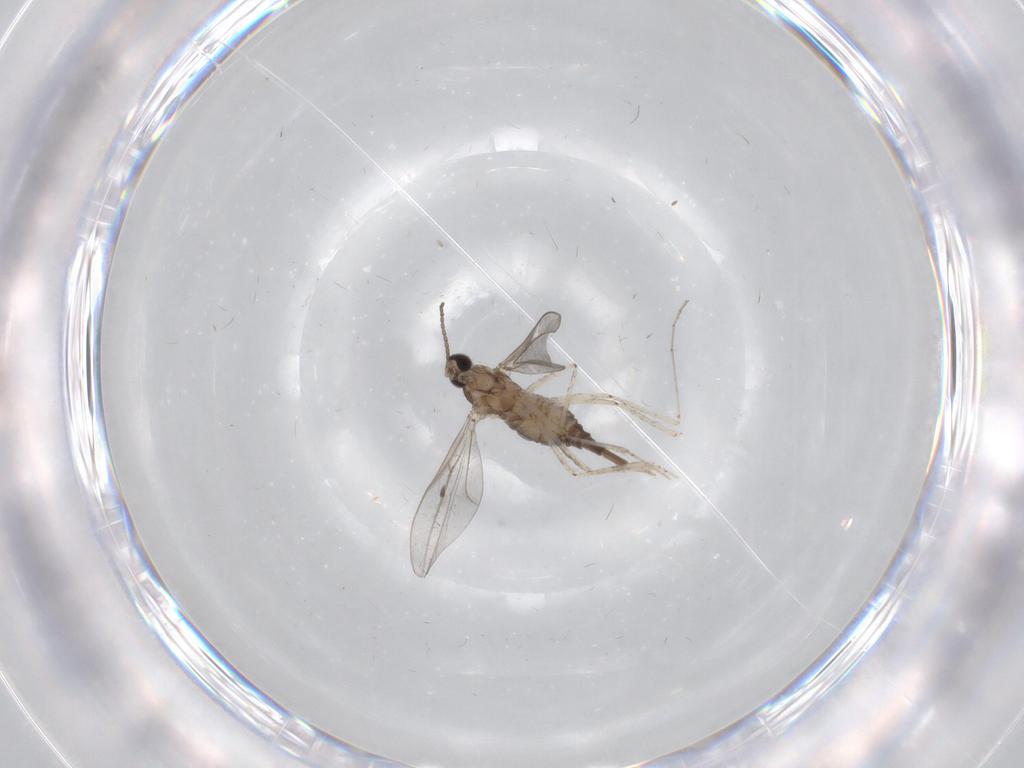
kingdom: Animalia
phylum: Arthropoda
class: Insecta
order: Diptera
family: Cecidomyiidae
